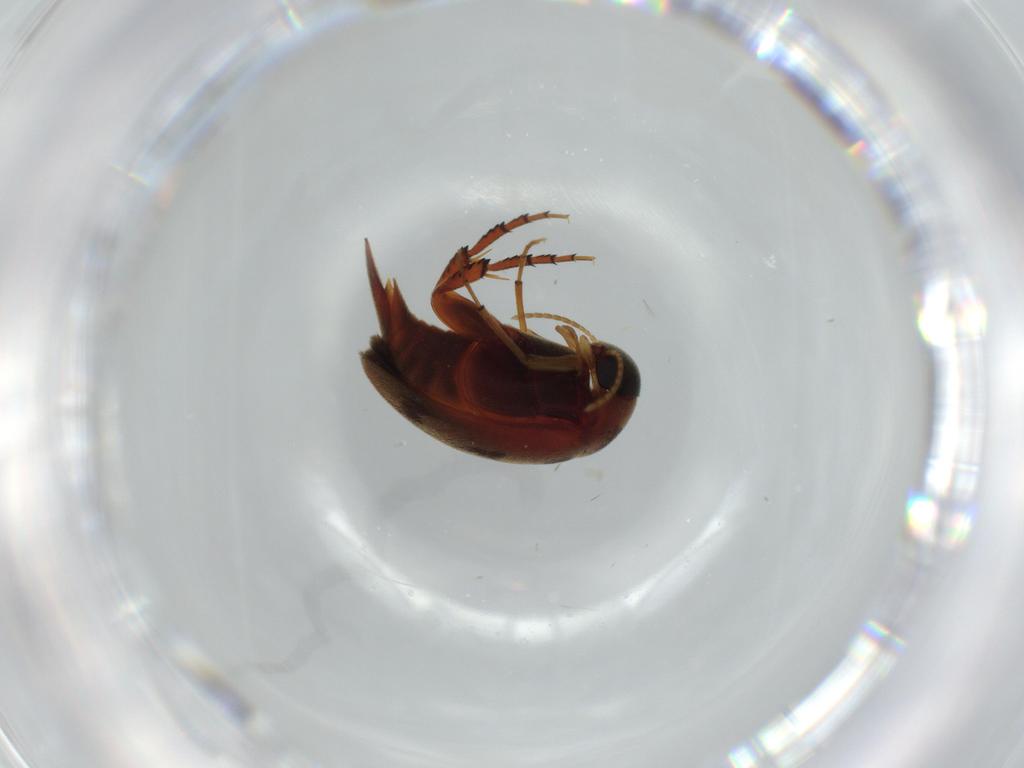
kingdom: Animalia
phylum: Arthropoda
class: Insecta
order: Coleoptera
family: Mordellidae
